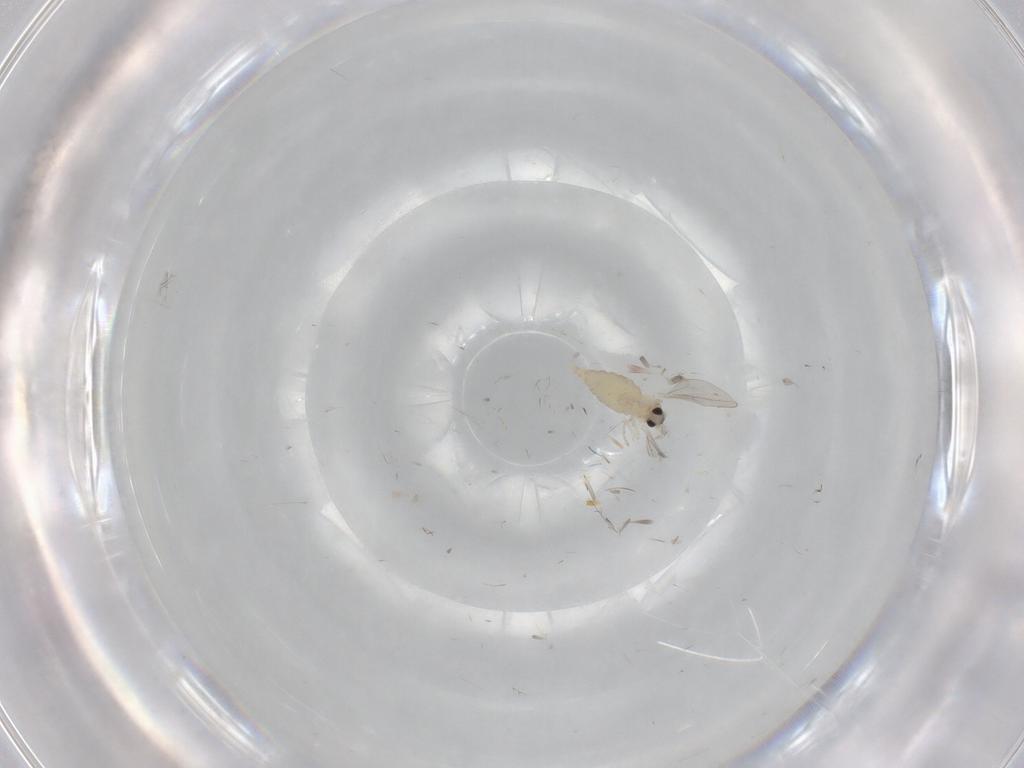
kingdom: Animalia
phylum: Arthropoda
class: Insecta
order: Diptera
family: Cecidomyiidae
